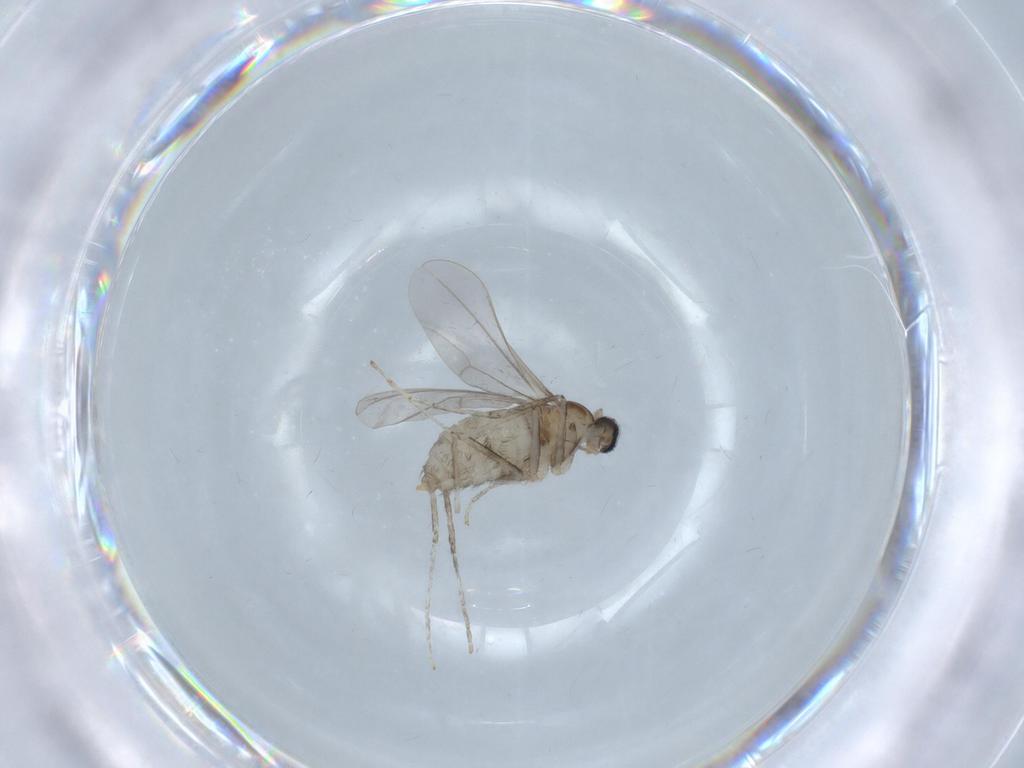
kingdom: Animalia
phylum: Arthropoda
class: Insecta
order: Diptera
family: Cecidomyiidae
